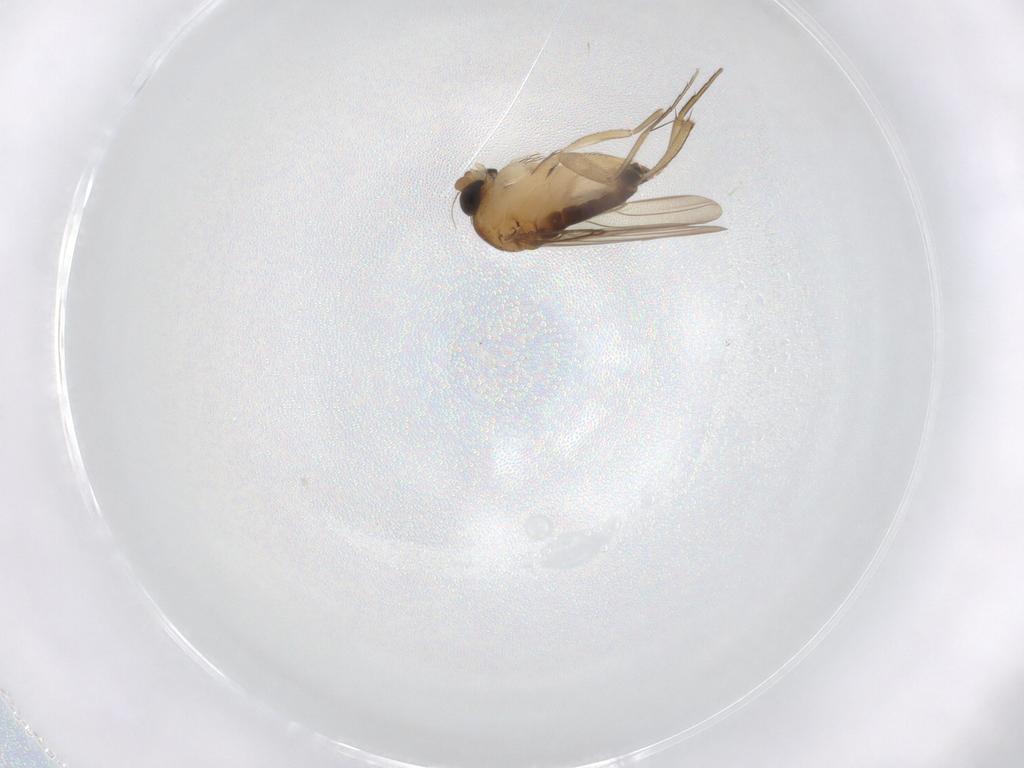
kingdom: Animalia
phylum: Arthropoda
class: Insecta
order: Diptera
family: Phoridae
